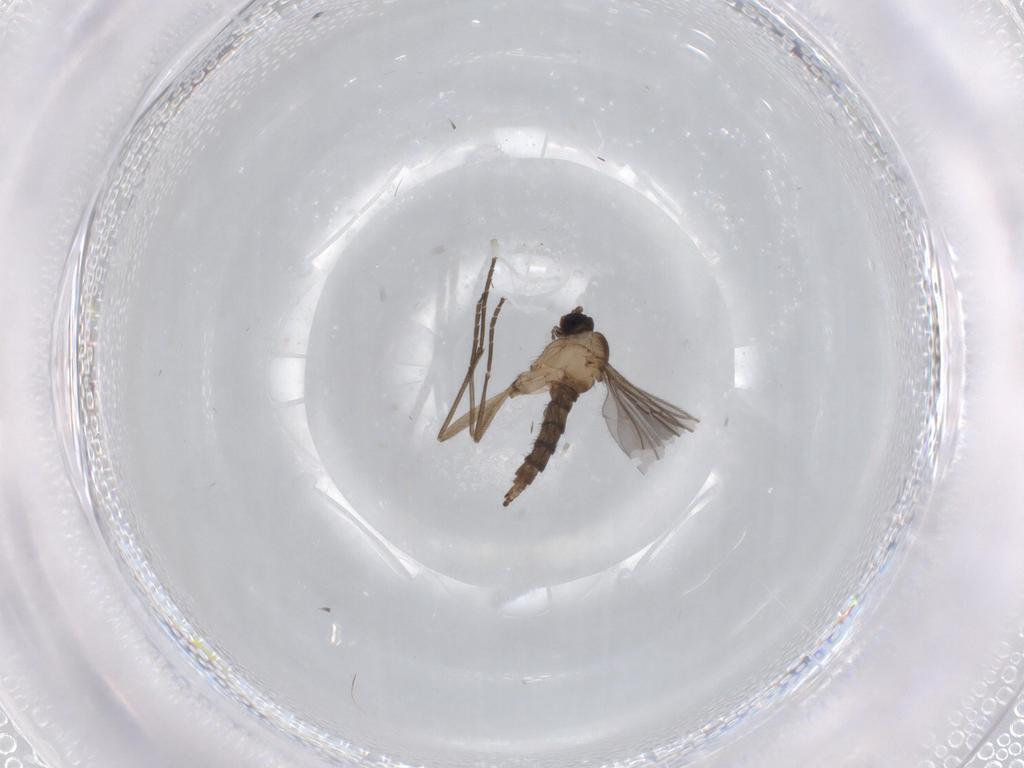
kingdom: Animalia
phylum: Arthropoda
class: Insecta
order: Diptera
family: Sciaridae
